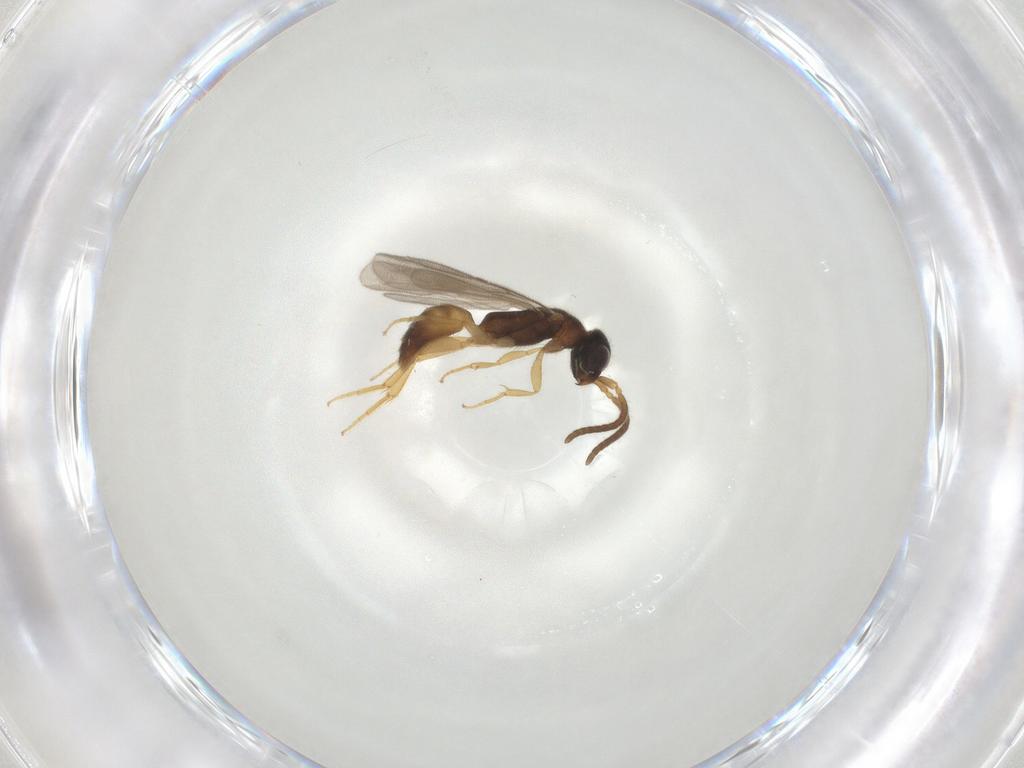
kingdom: Animalia
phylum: Arthropoda
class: Insecta
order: Hymenoptera
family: Bethylidae
